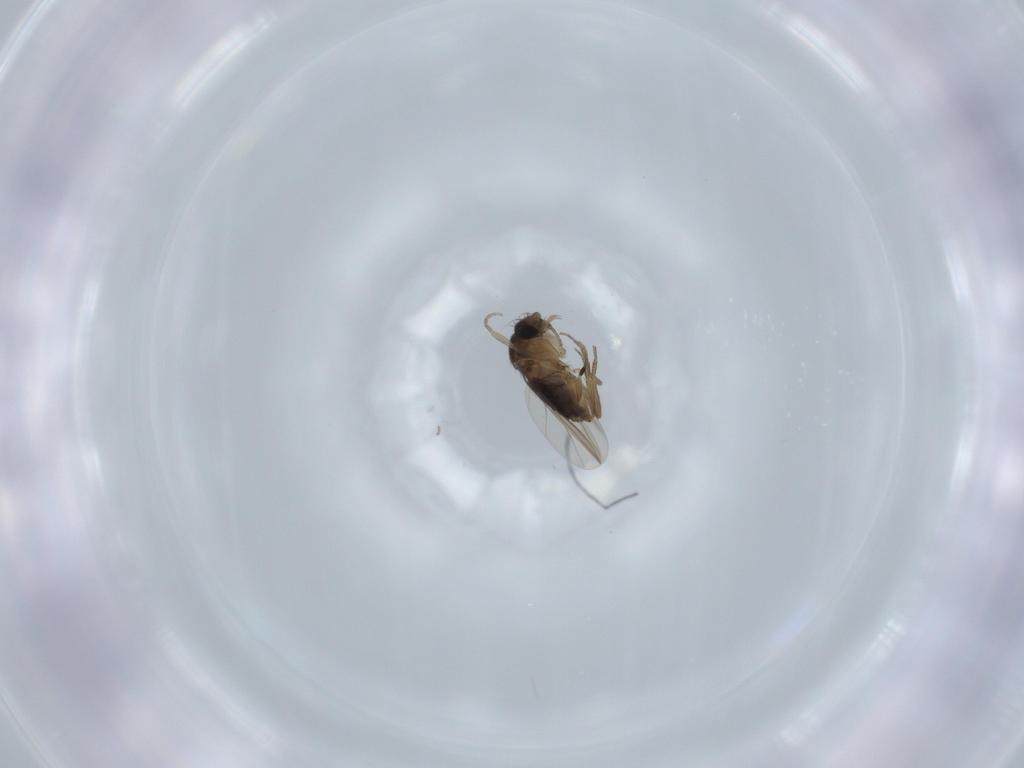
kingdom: Animalia
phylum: Arthropoda
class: Insecta
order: Diptera
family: Phoridae
